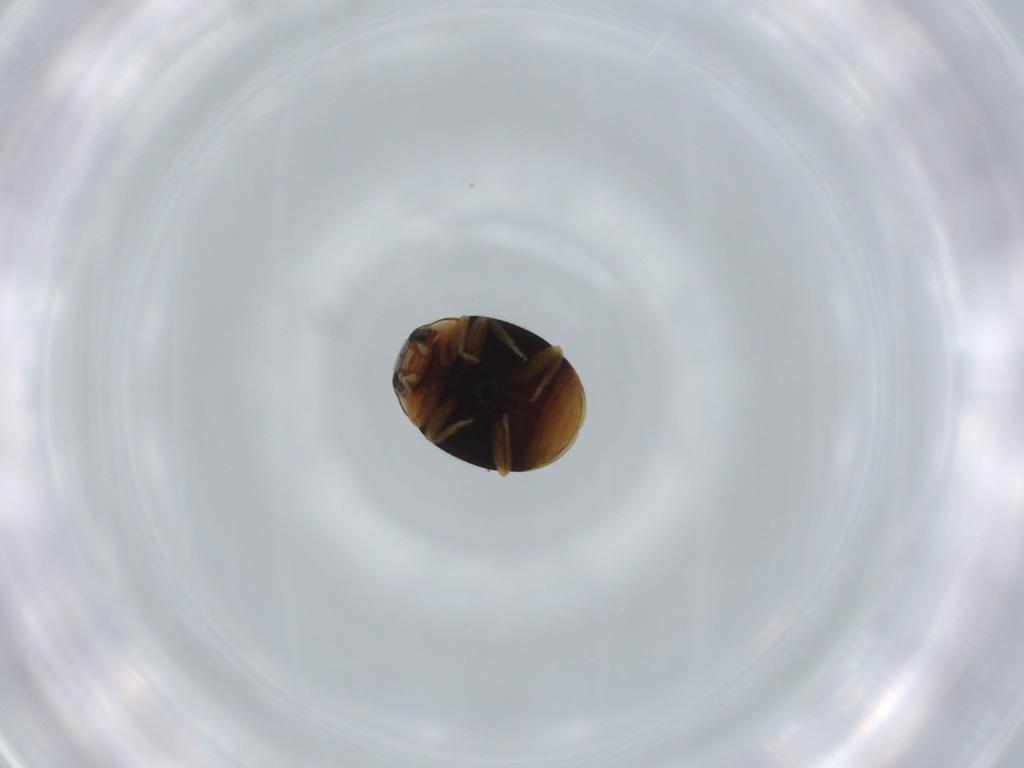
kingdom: Animalia
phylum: Arthropoda
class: Insecta
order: Coleoptera
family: Coccinellidae
